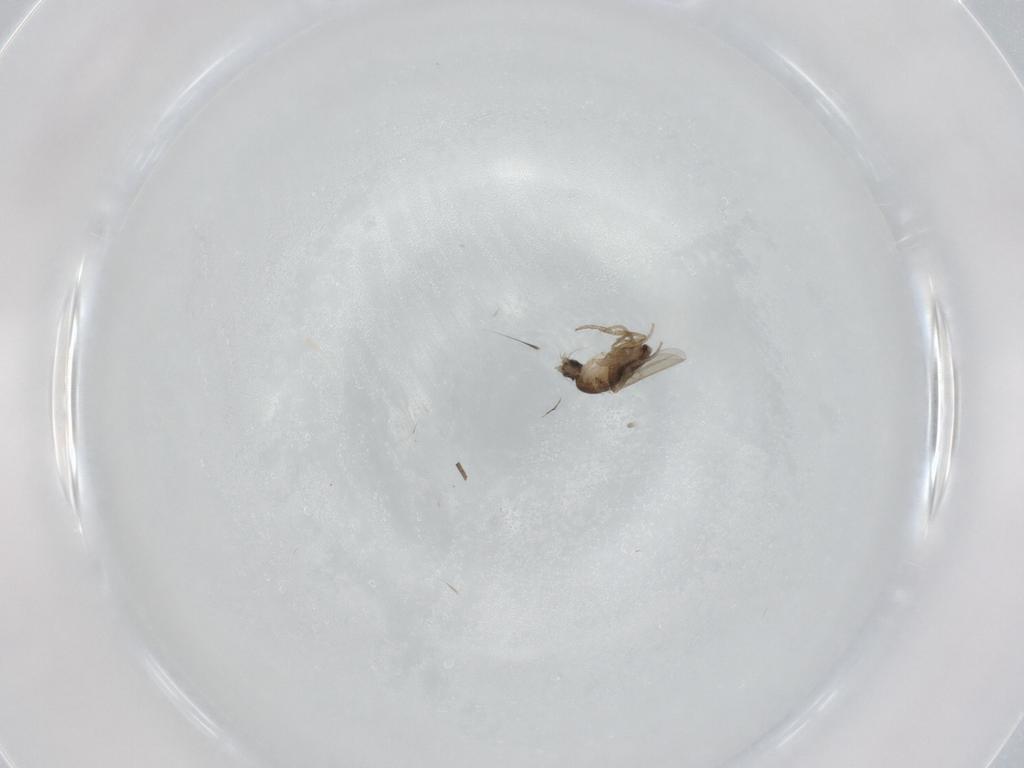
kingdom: Animalia
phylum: Arthropoda
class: Insecta
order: Diptera
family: Phoridae
